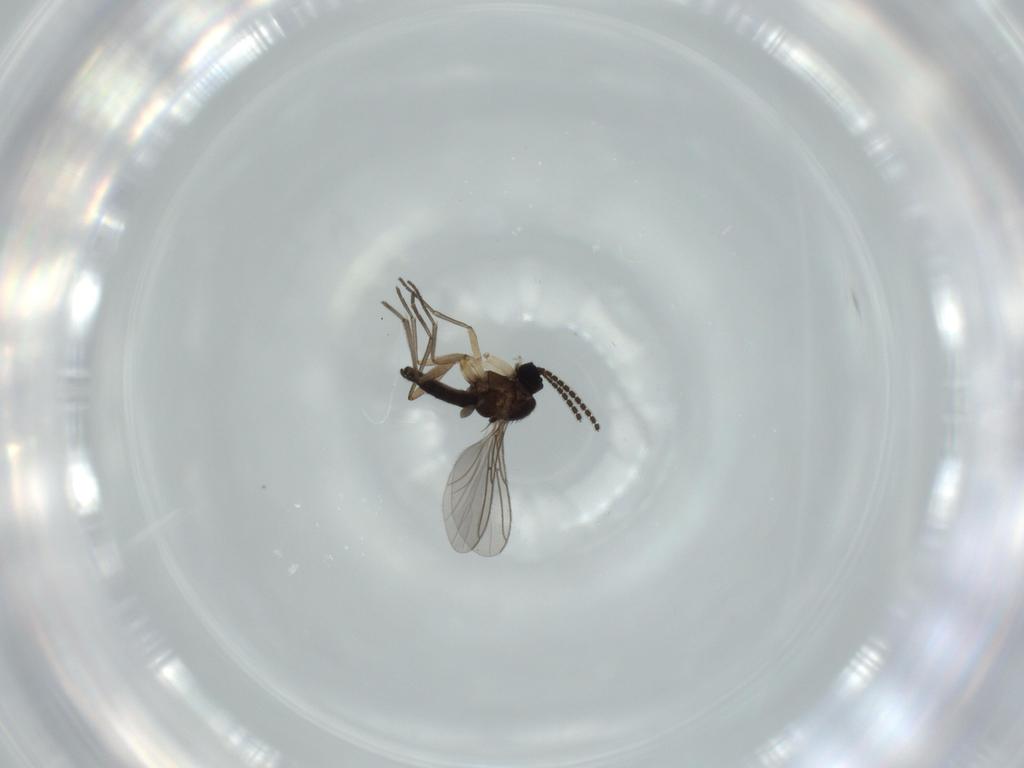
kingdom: Animalia
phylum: Arthropoda
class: Insecta
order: Diptera
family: Sciaridae
